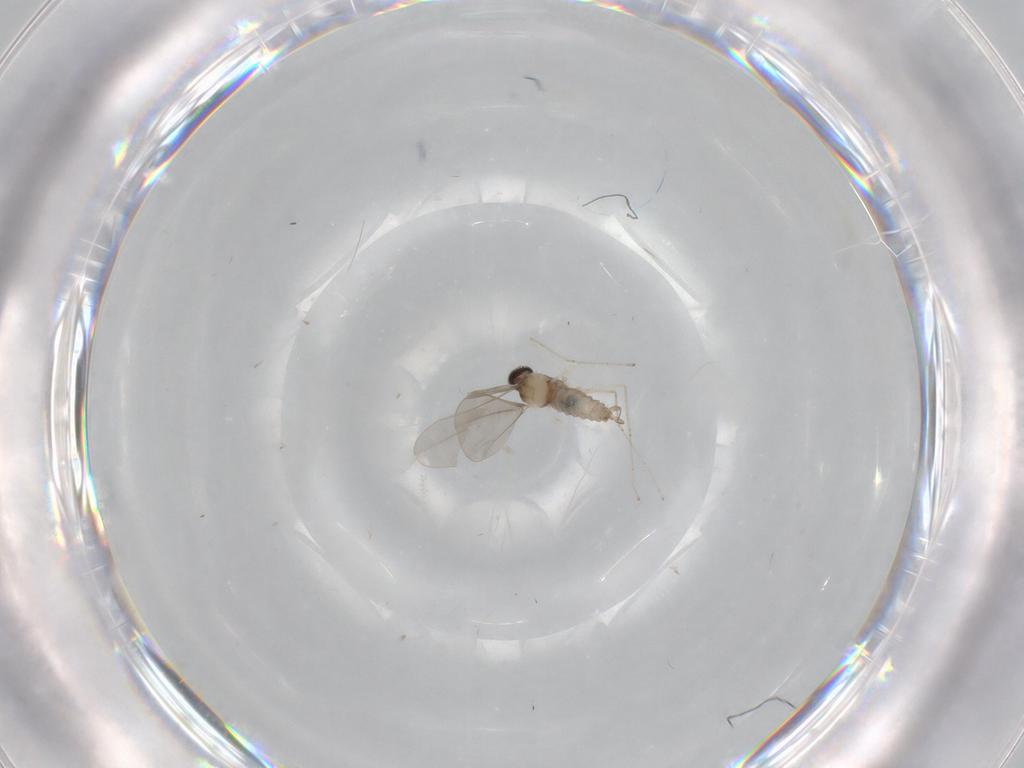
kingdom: Animalia
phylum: Arthropoda
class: Insecta
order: Diptera
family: Cecidomyiidae
